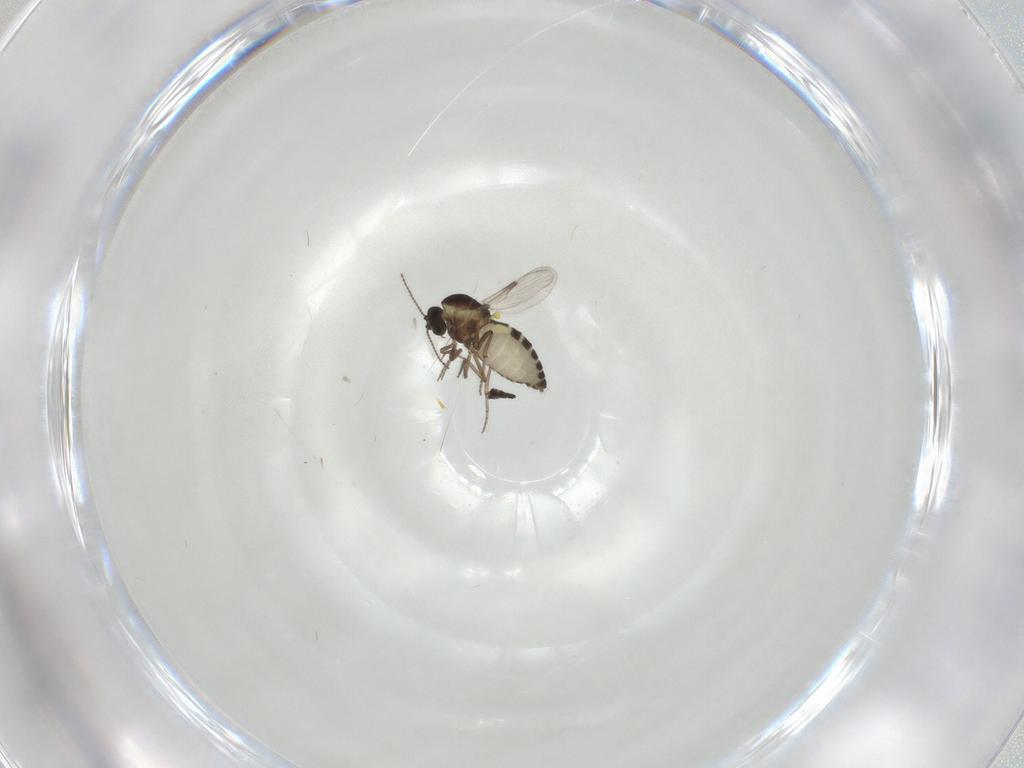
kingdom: Animalia
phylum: Arthropoda
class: Insecta
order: Diptera
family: Ceratopogonidae
